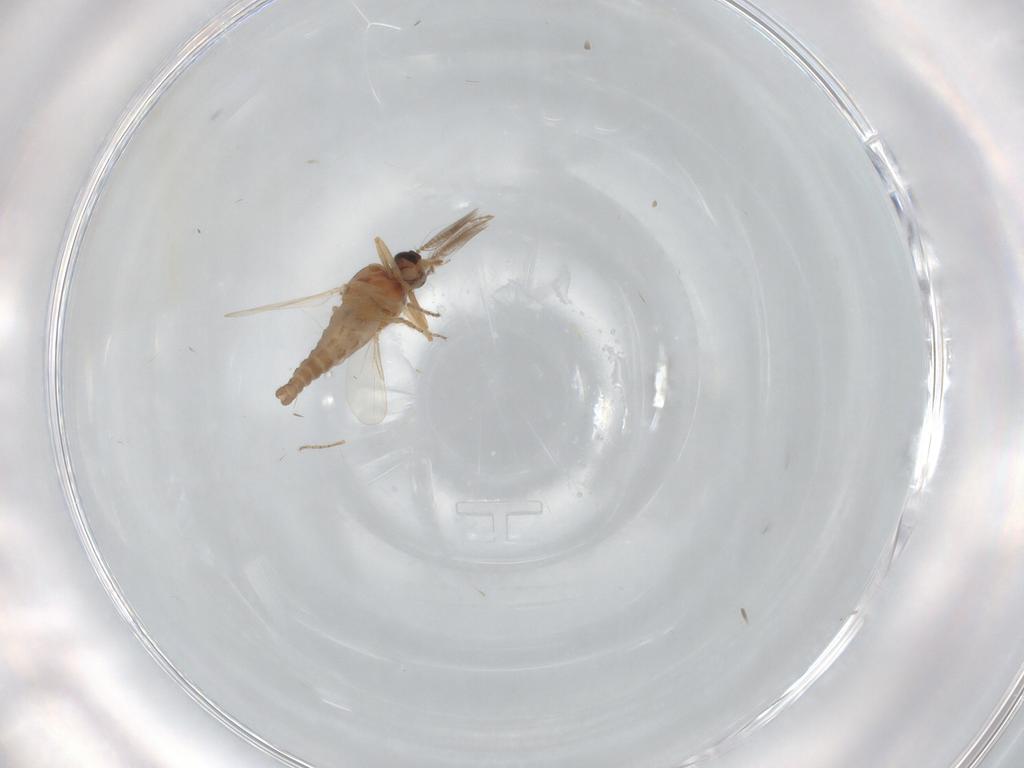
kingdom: Animalia
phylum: Arthropoda
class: Insecta
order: Diptera
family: Ceratopogonidae
